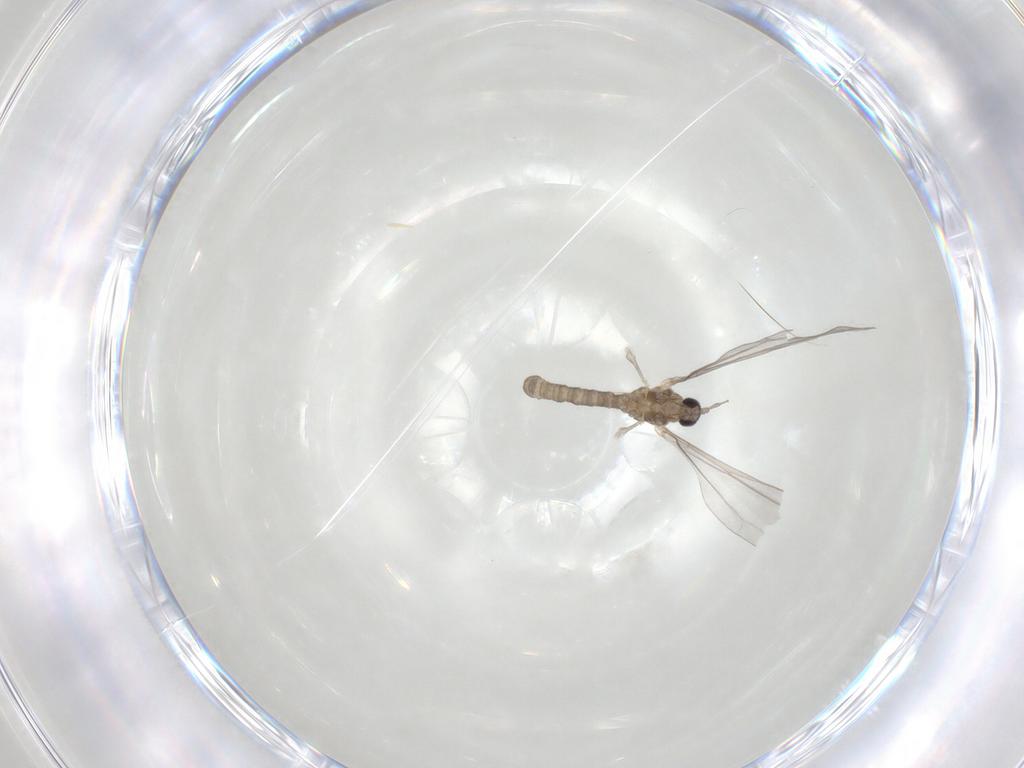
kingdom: Animalia
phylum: Arthropoda
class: Insecta
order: Diptera
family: Cecidomyiidae
